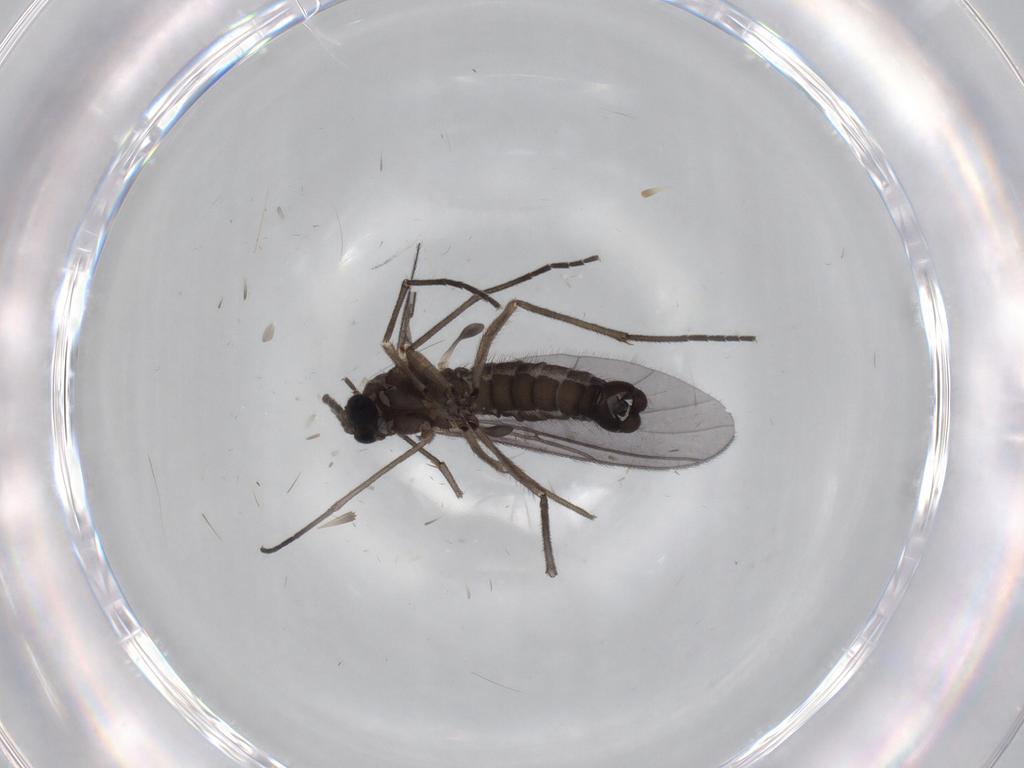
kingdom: Animalia
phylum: Arthropoda
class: Insecta
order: Diptera
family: Sciaridae
